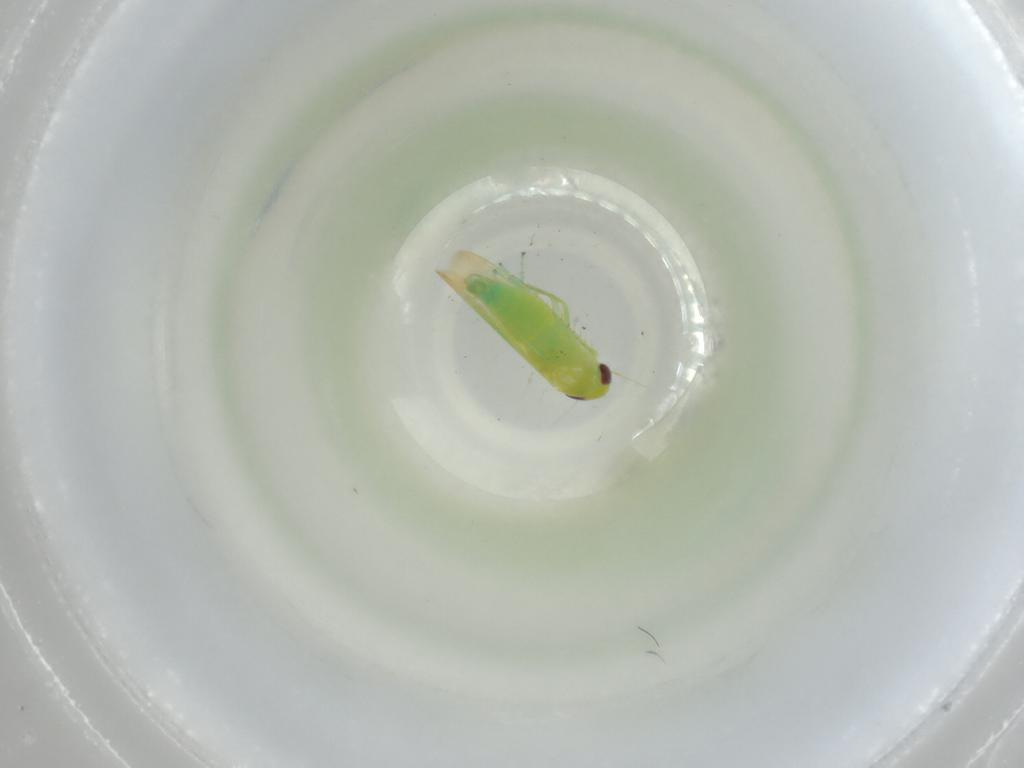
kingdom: Animalia
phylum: Arthropoda
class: Insecta
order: Hemiptera
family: Cicadellidae
